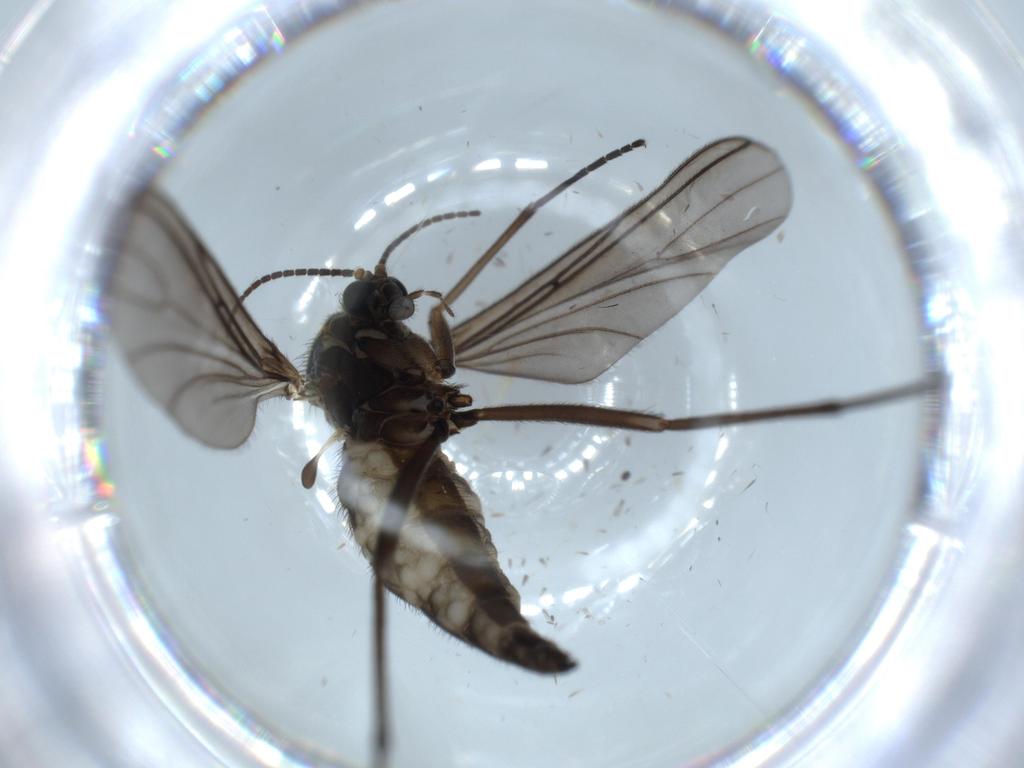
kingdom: Animalia
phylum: Arthropoda
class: Insecta
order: Diptera
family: Sciaridae
